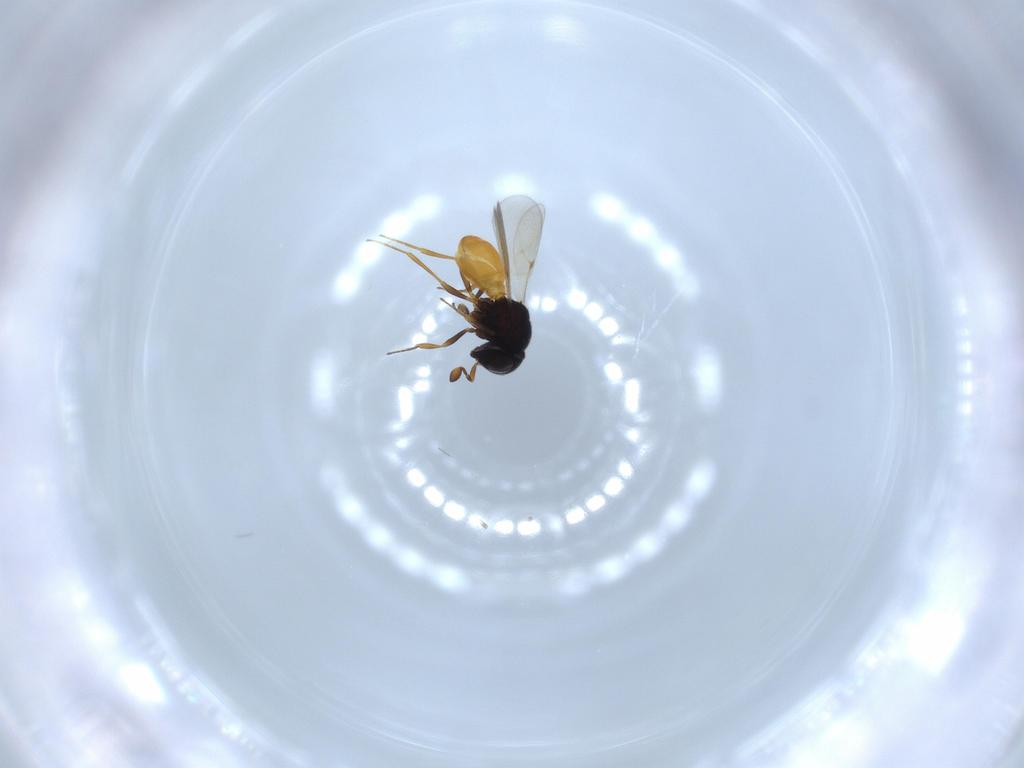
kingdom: Animalia
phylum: Arthropoda
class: Insecta
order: Hymenoptera
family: Scelionidae
